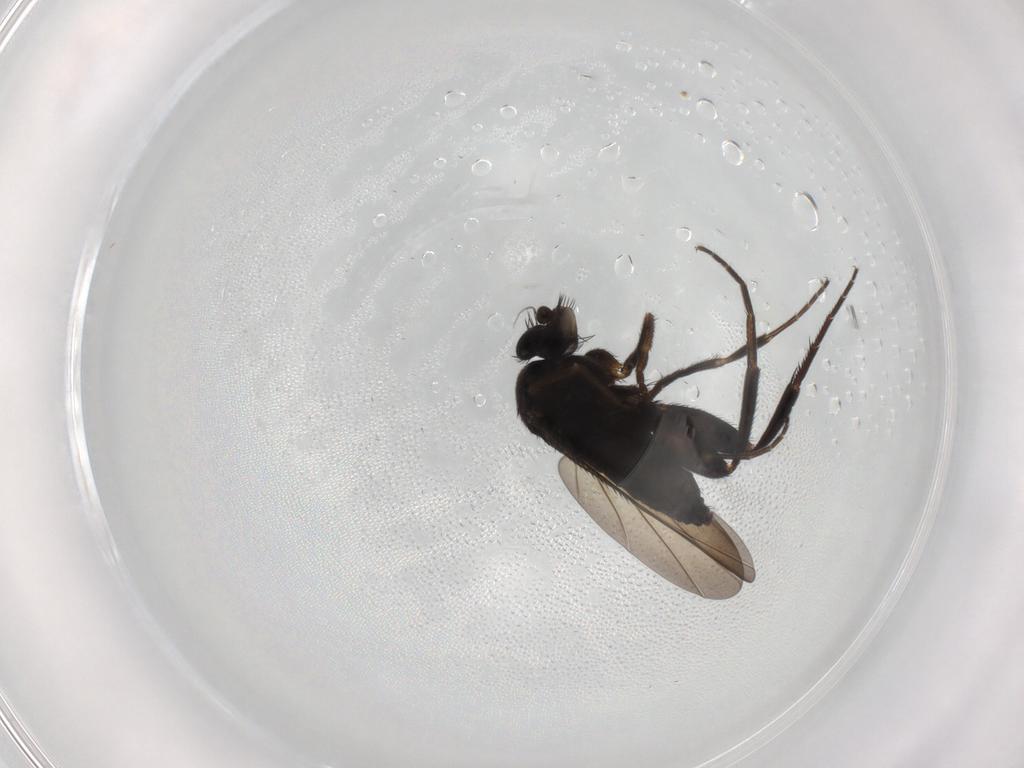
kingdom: Animalia
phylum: Arthropoda
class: Insecta
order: Diptera
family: Phoridae
